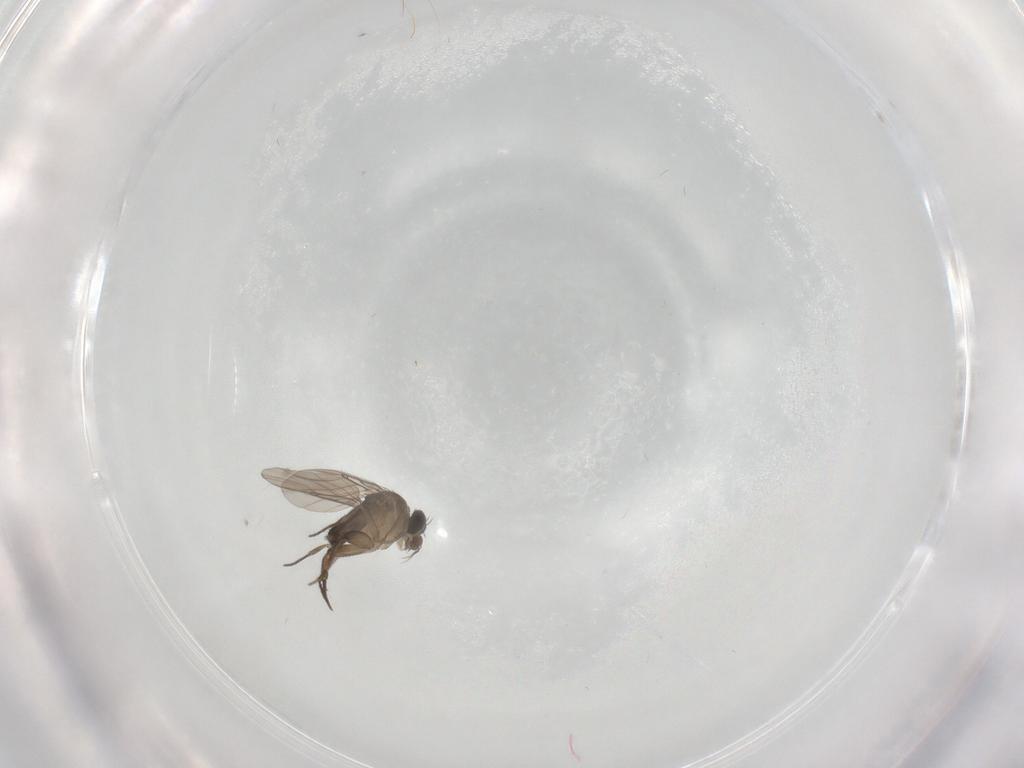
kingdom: Animalia
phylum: Arthropoda
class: Insecta
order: Diptera
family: Phoridae
